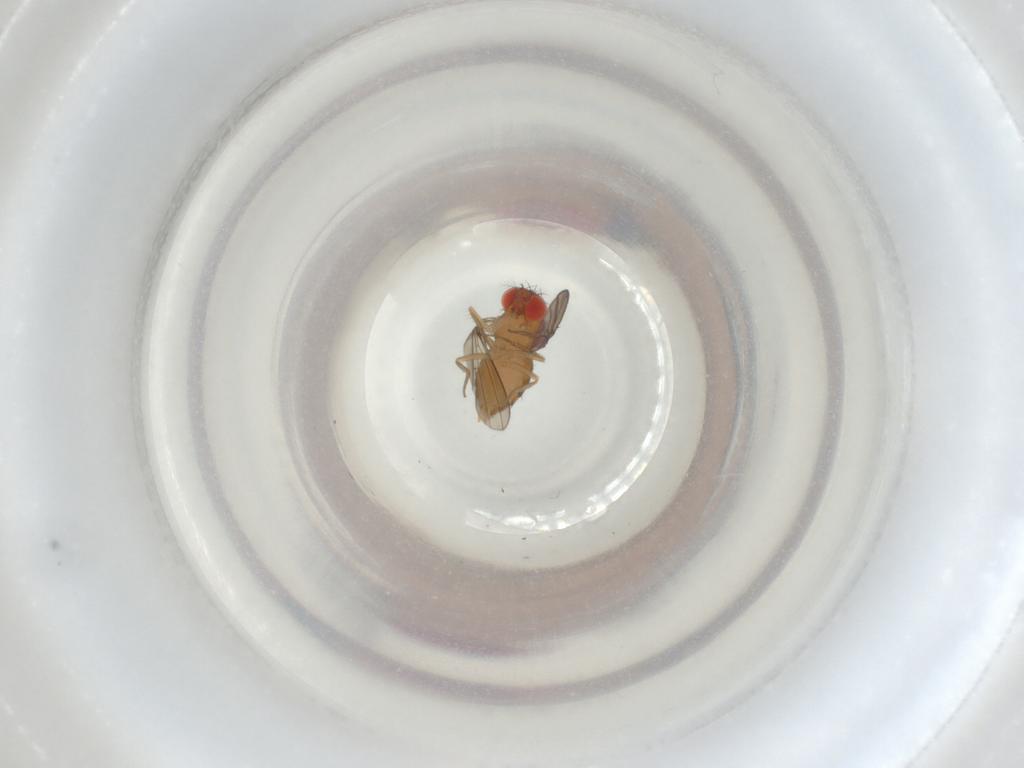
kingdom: Animalia
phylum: Arthropoda
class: Insecta
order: Diptera
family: Drosophilidae
